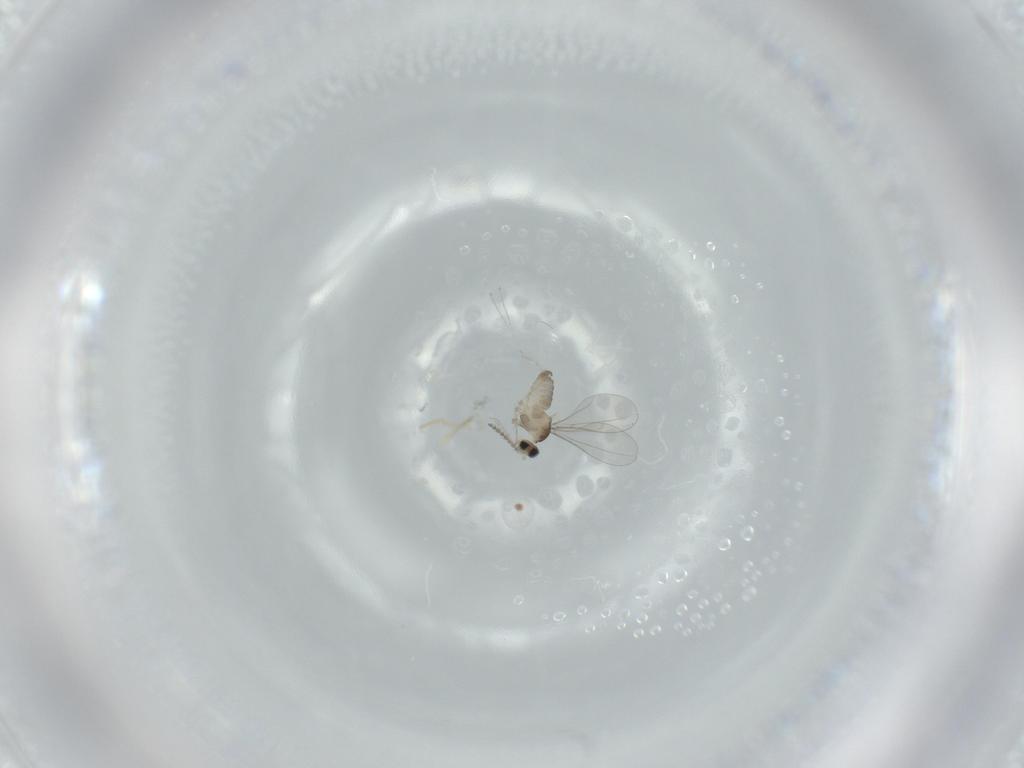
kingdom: Animalia
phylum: Arthropoda
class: Insecta
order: Diptera
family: Cecidomyiidae
